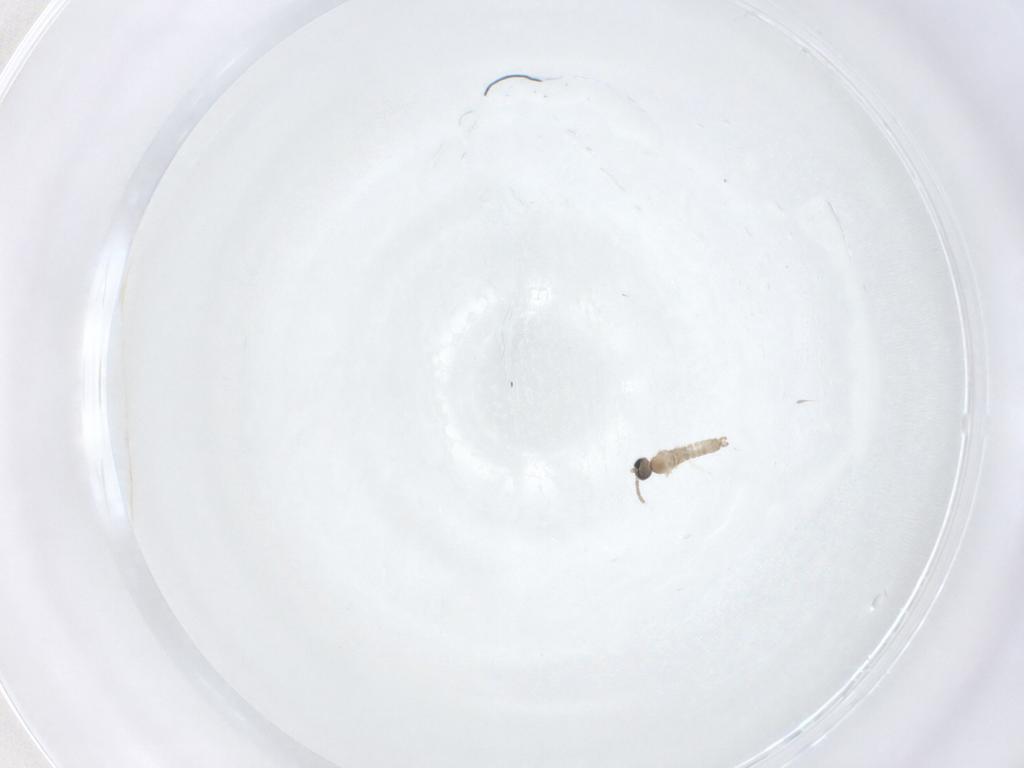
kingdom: Animalia
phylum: Arthropoda
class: Insecta
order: Diptera
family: Cecidomyiidae
